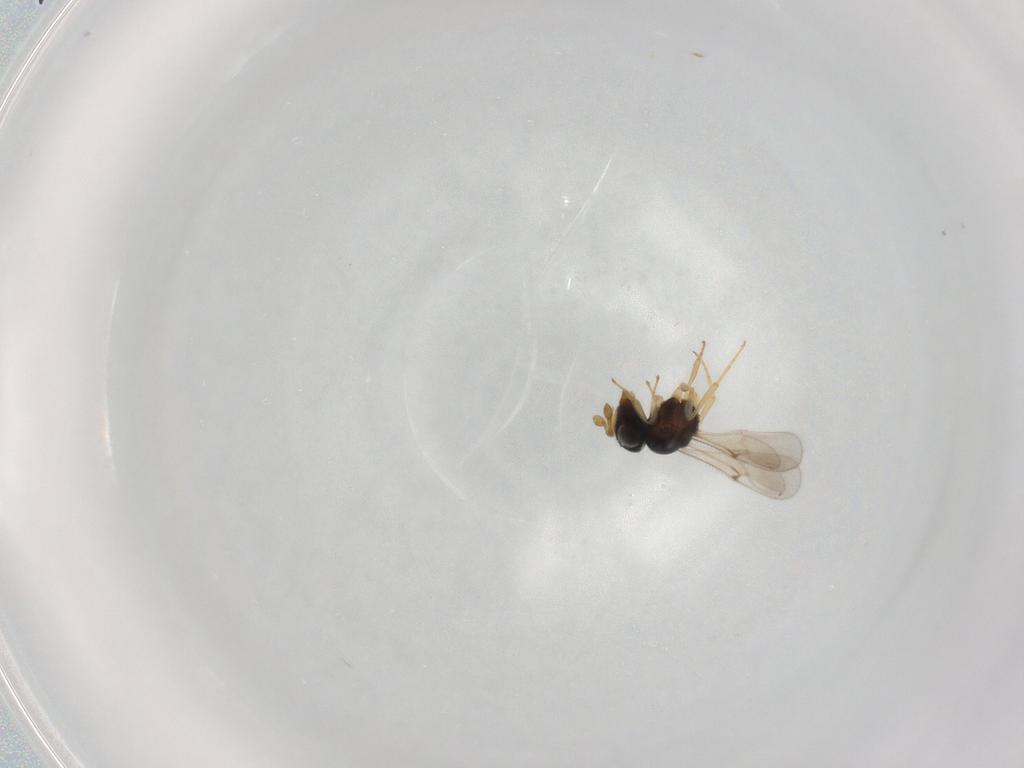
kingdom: Animalia
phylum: Arthropoda
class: Insecta
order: Hymenoptera
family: Scelionidae
